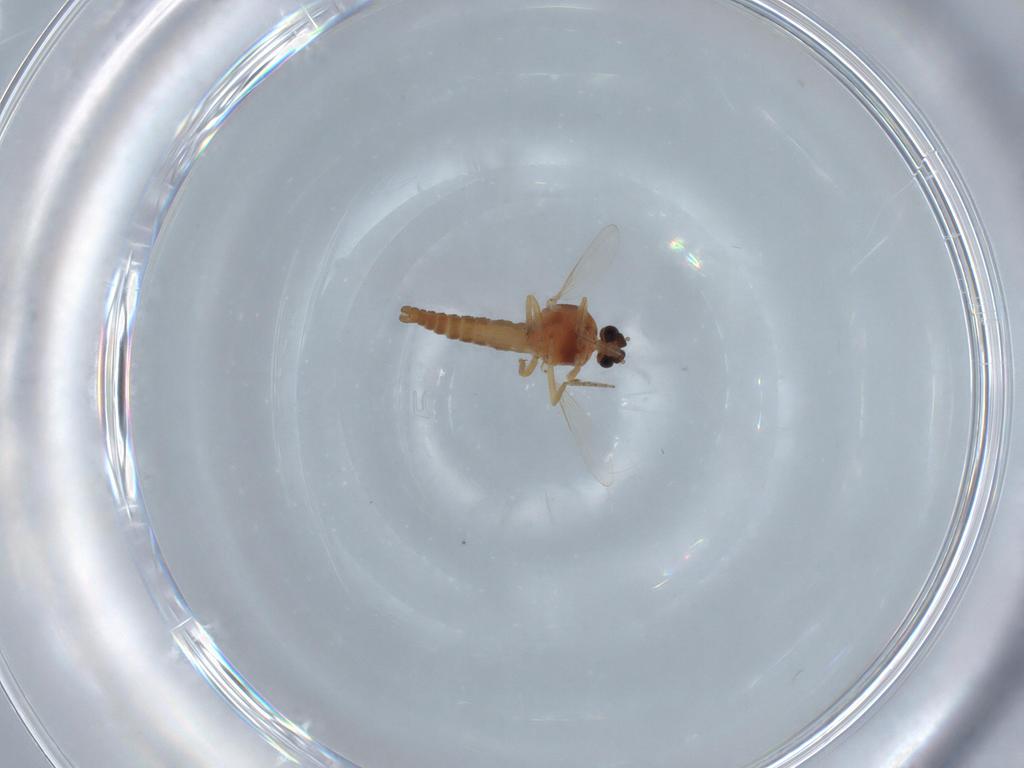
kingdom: Animalia
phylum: Arthropoda
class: Insecta
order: Diptera
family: Ceratopogonidae
